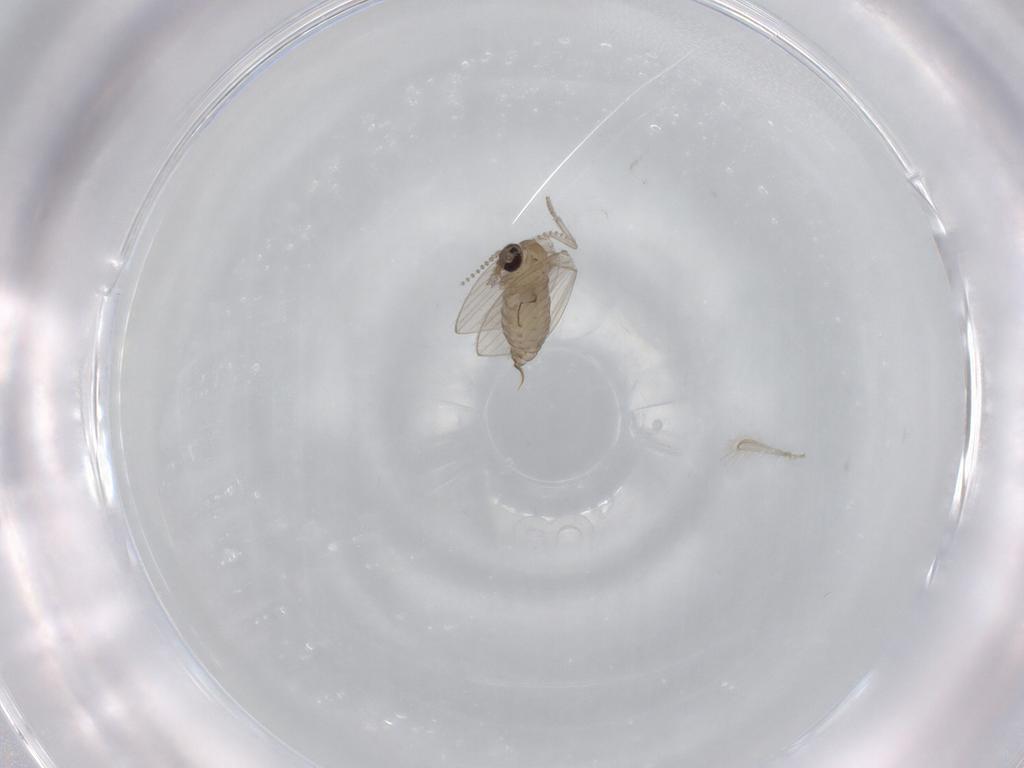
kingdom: Animalia
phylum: Arthropoda
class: Insecta
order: Diptera
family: Psychodidae
